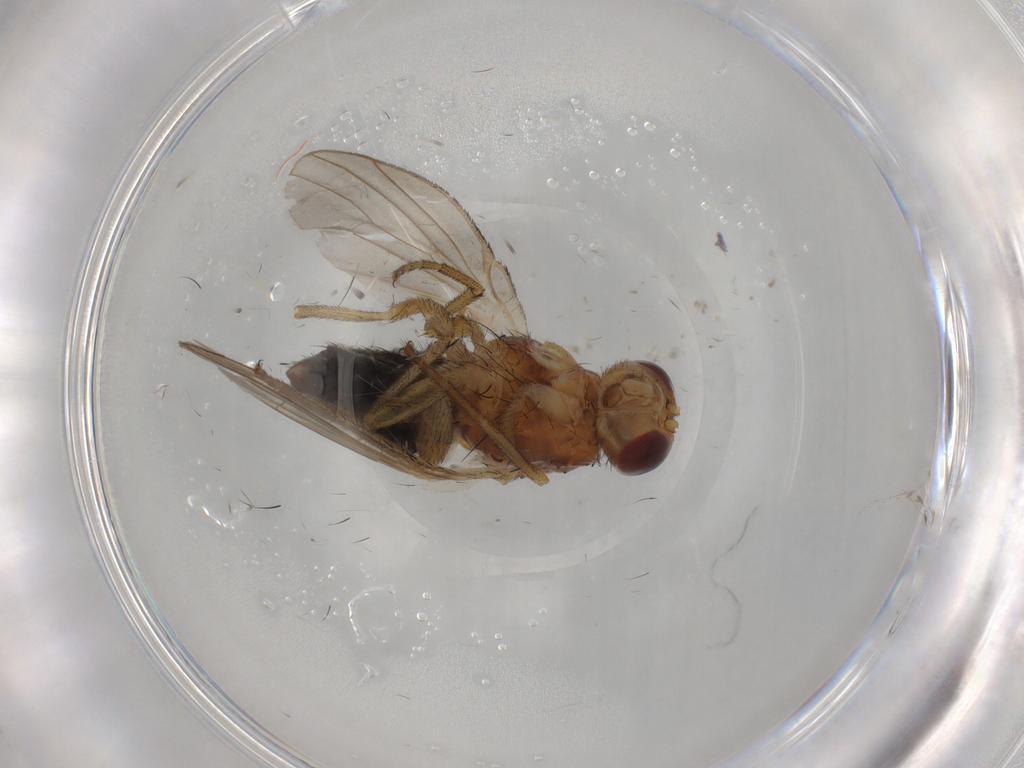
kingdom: Animalia
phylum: Arthropoda
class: Insecta
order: Diptera
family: Heleomyzidae
